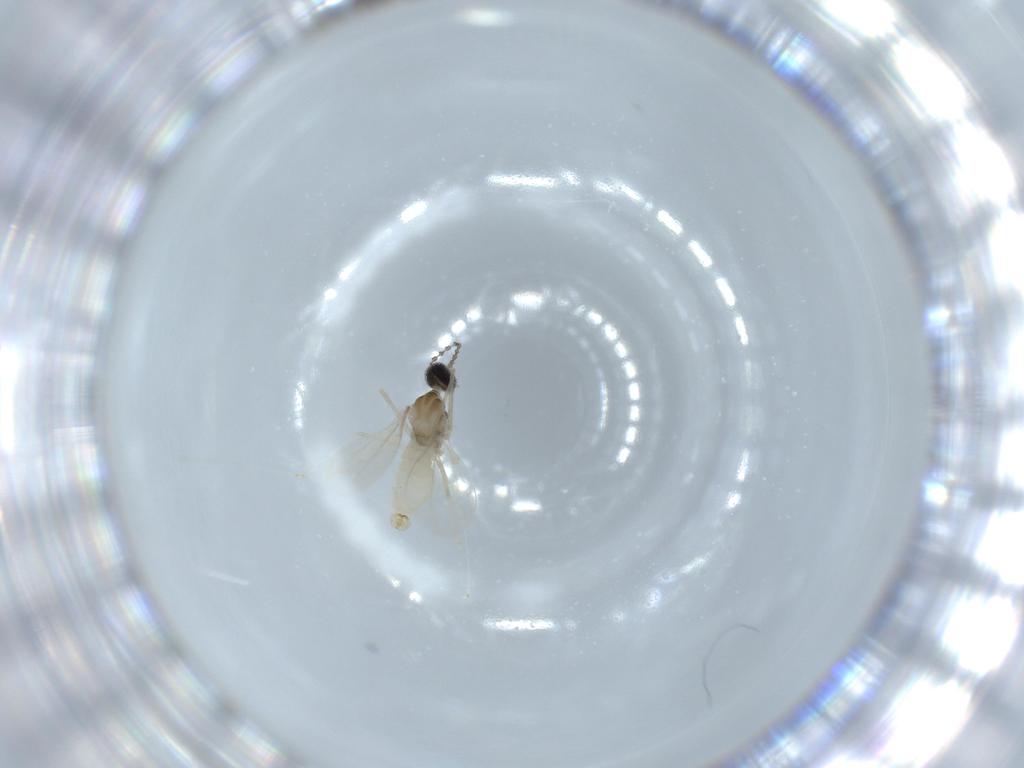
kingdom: Animalia
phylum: Arthropoda
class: Insecta
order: Diptera
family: Cecidomyiidae
